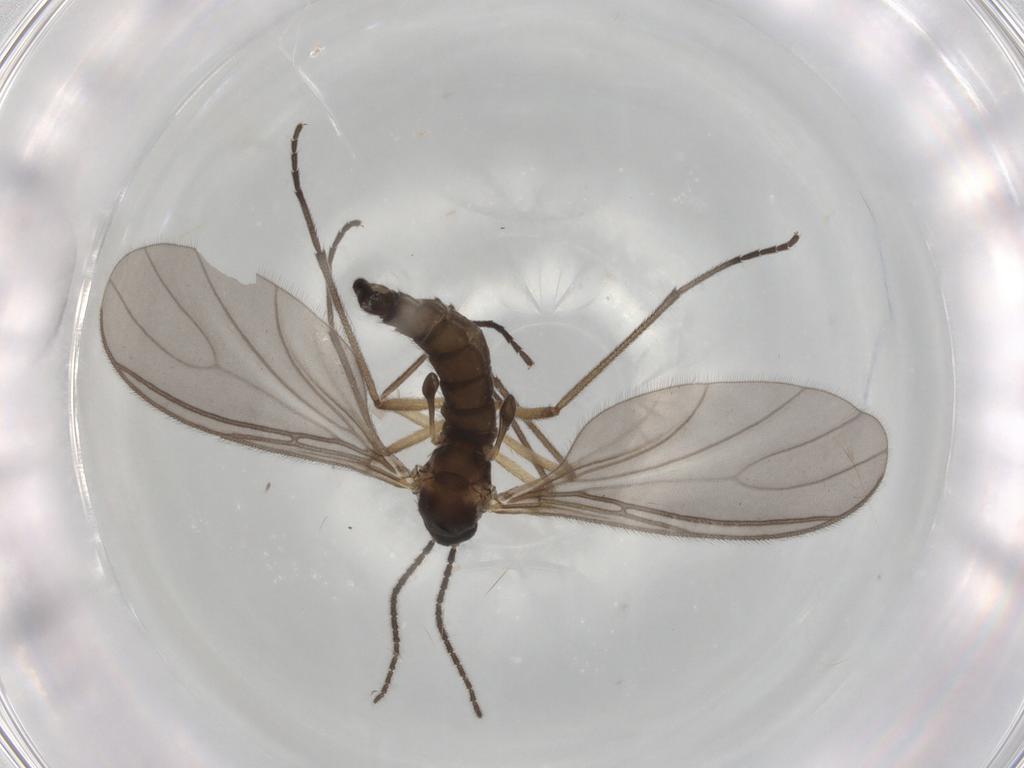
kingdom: Animalia
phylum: Arthropoda
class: Insecta
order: Diptera
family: Sciaridae
